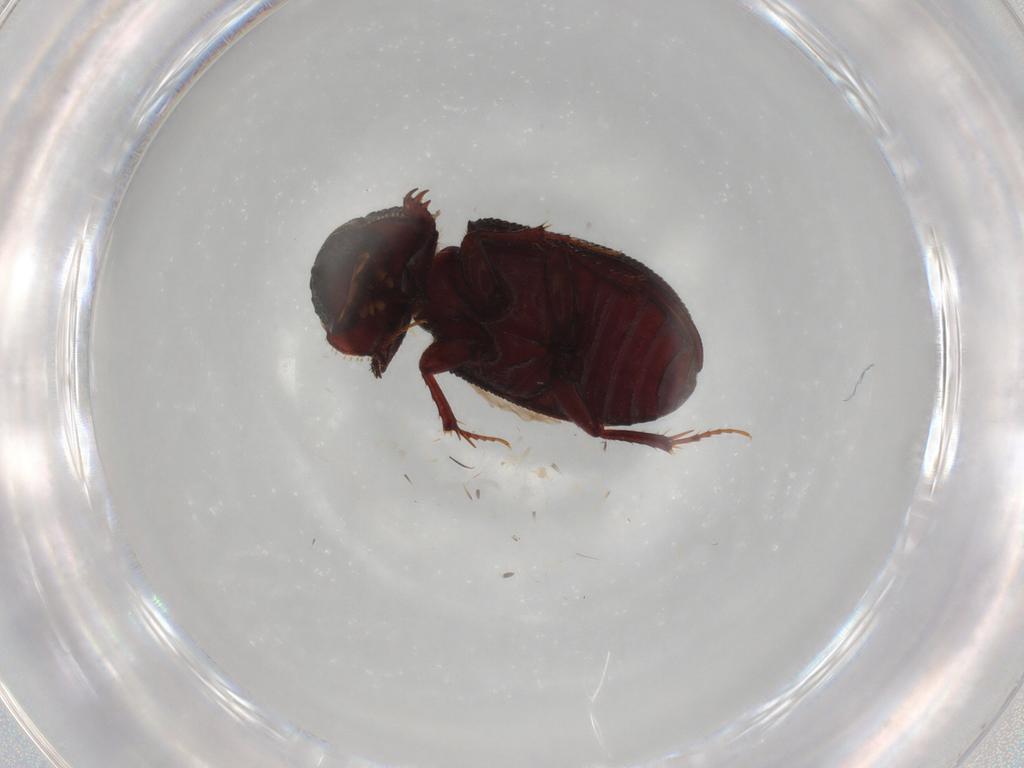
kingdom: Animalia
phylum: Arthropoda
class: Insecta
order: Coleoptera
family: Scarabaeidae
